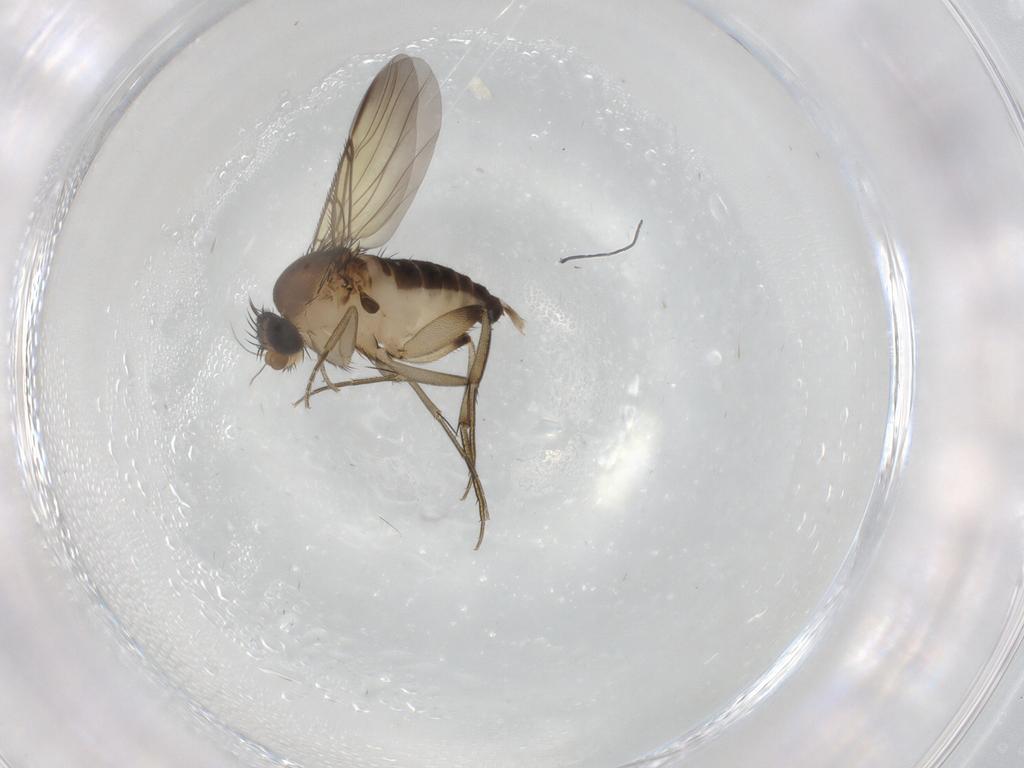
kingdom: Animalia
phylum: Arthropoda
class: Insecta
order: Diptera
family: Phoridae
